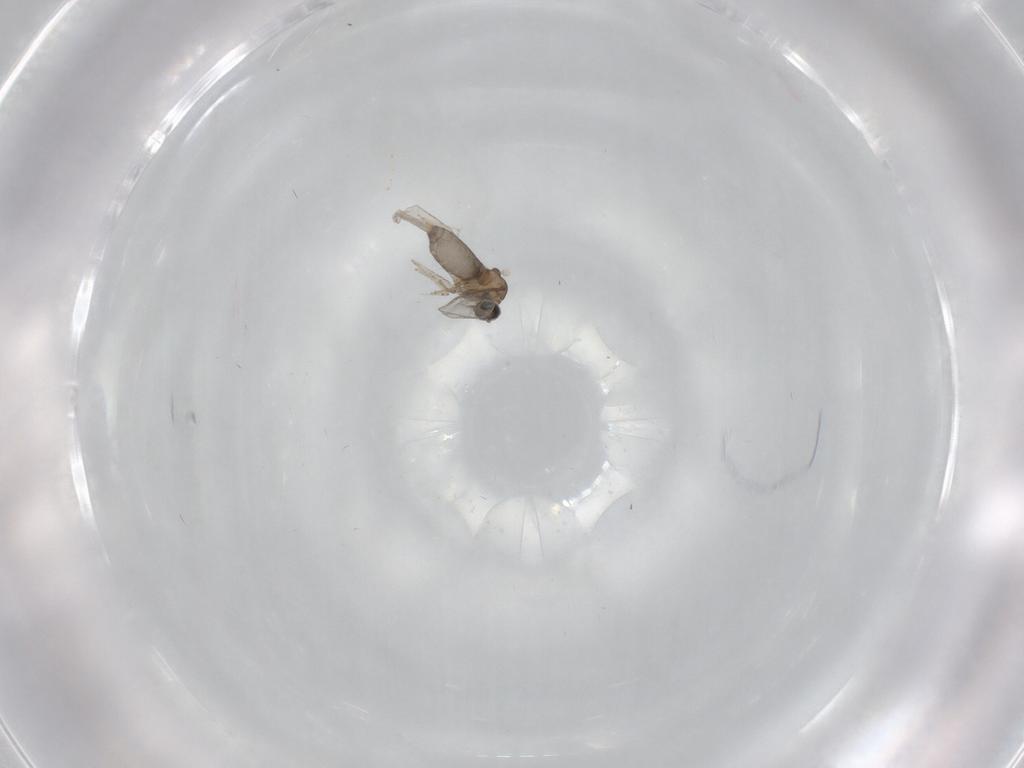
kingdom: Animalia
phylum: Arthropoda
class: Insecta
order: Diptera
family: Cecidomyiidae
